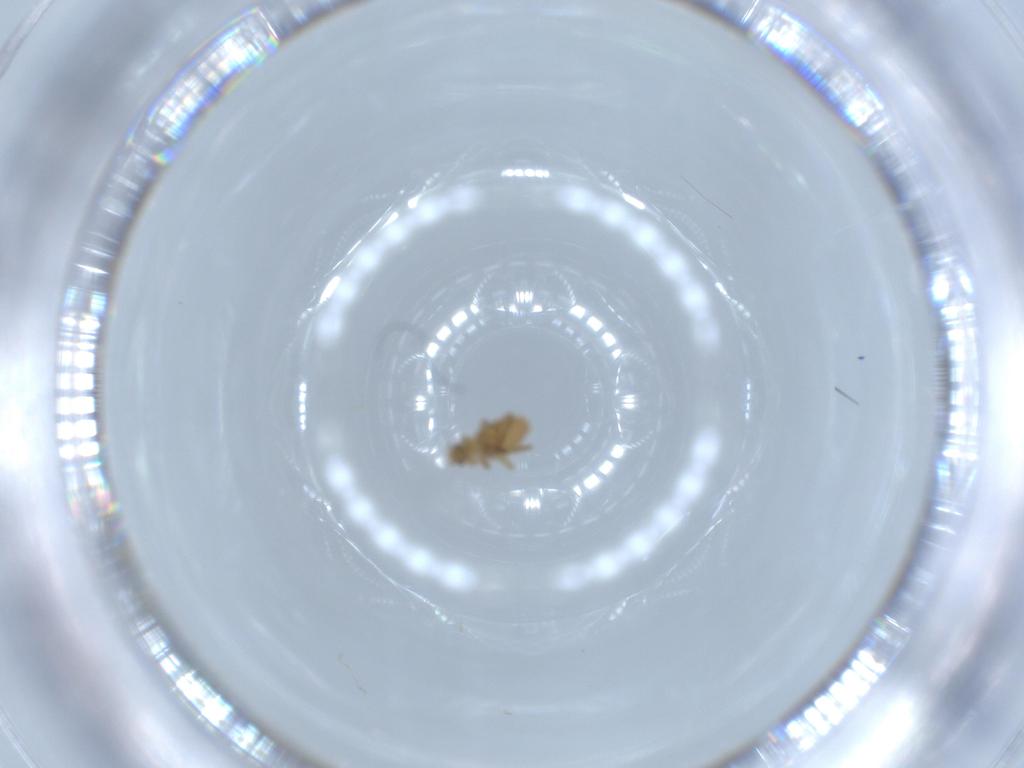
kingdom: Animalia
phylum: Arthropoda
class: Insecta
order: Diptera
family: Phoridae
